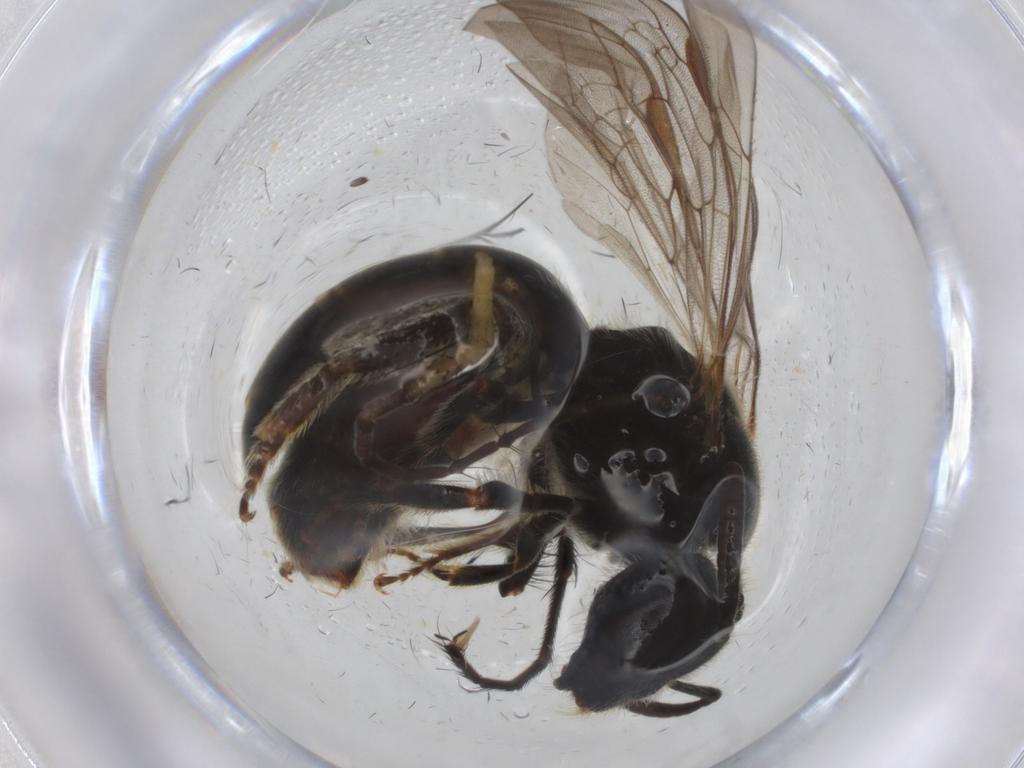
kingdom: Animalia
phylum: Arthropoda
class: Insecta
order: Hymenoptera
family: Halictidae
